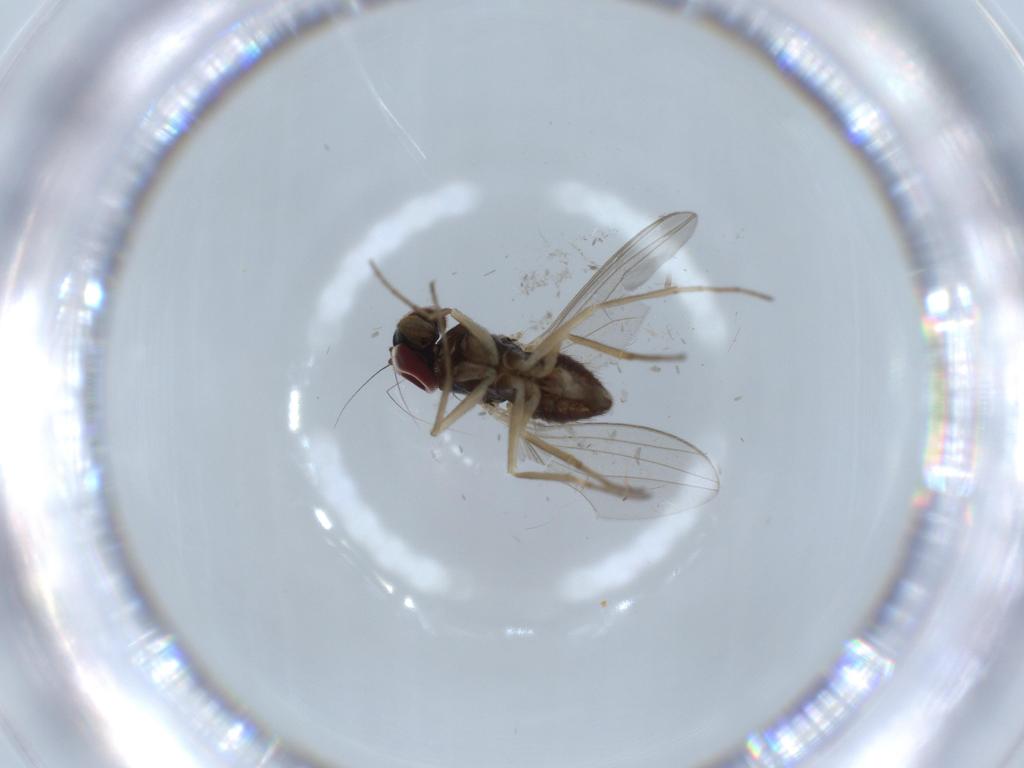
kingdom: Animalia
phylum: Arthropoda
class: Insecta
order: Diptera
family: Dolichopodidae
